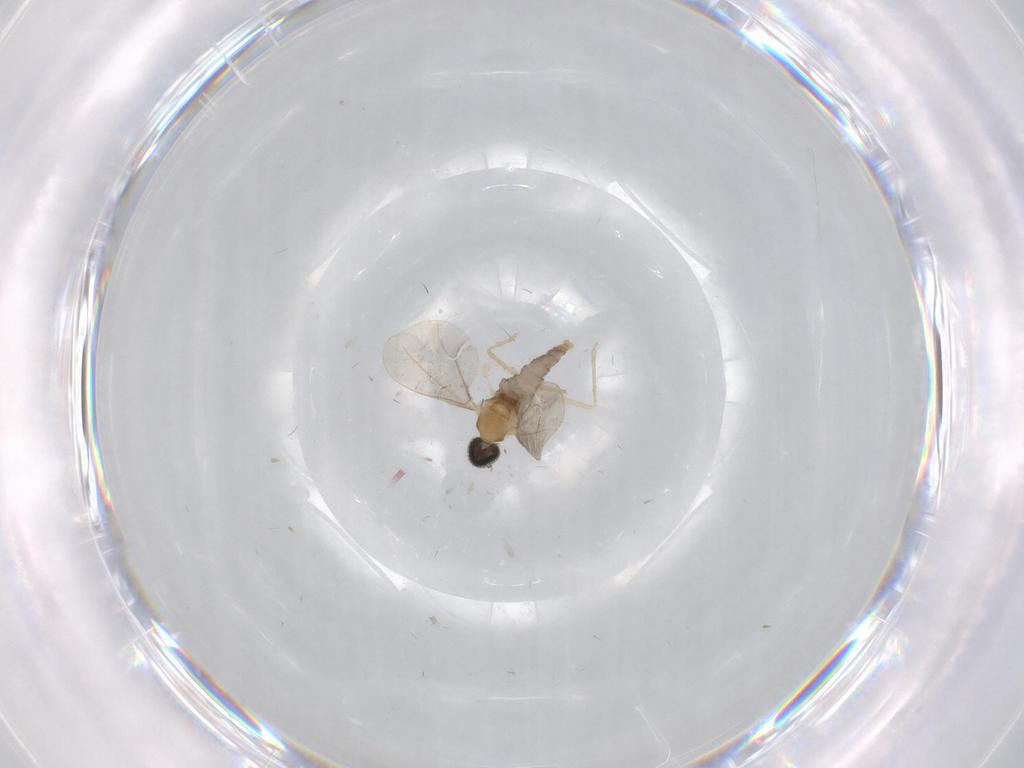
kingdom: Animalia
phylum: Arthropoda
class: Insecta
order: Diptera
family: Cecidomyiidae
